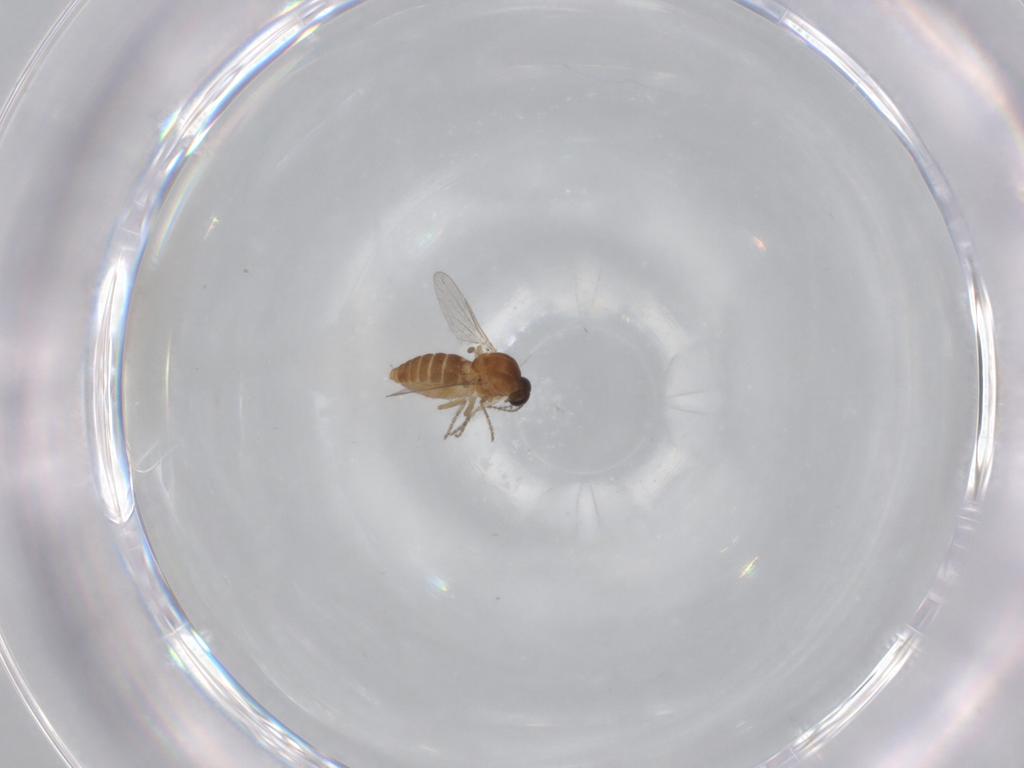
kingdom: Animalia
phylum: Arthropoda
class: Insecta
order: Diptera
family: Ceratopogonidae
